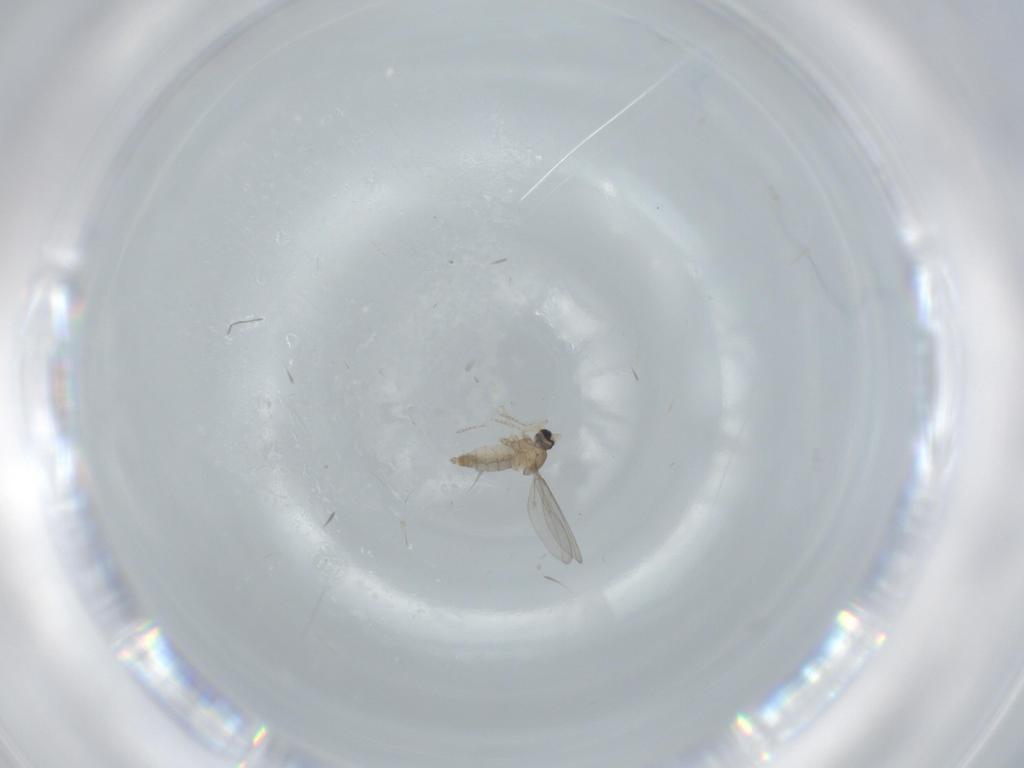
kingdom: Animalia
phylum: Arthropoda
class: Insecta
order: Diptera
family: Cecidomyiidae
